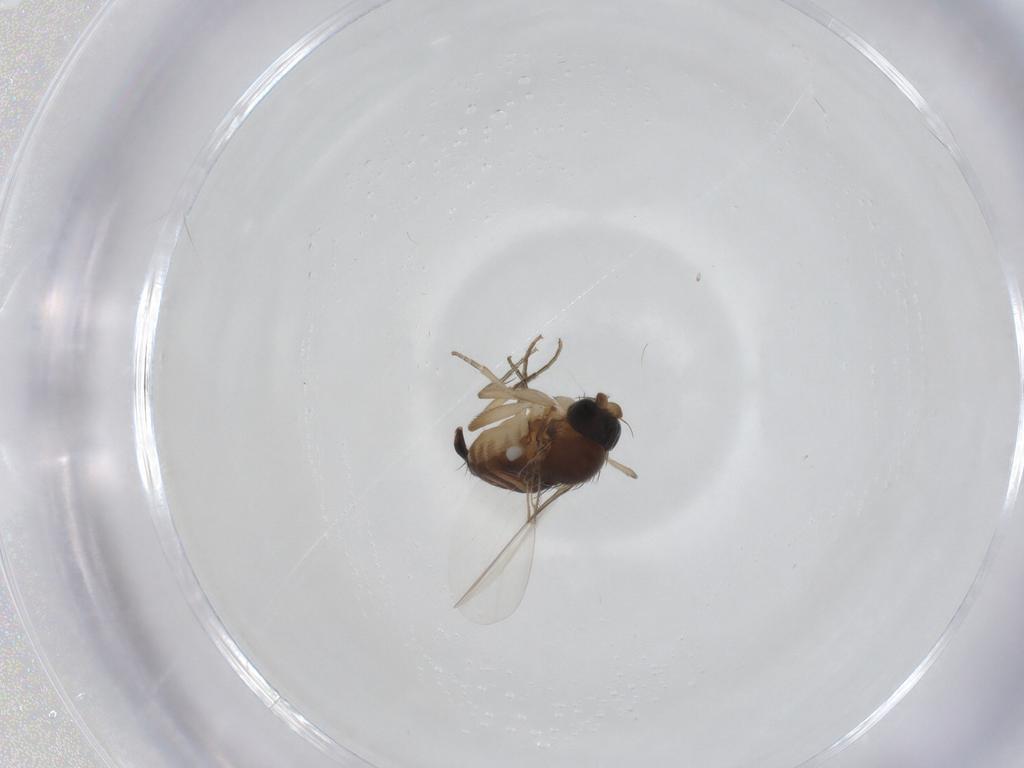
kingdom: Animalia
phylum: Arthropoda
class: Insecta
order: Diptera
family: Phoridae
